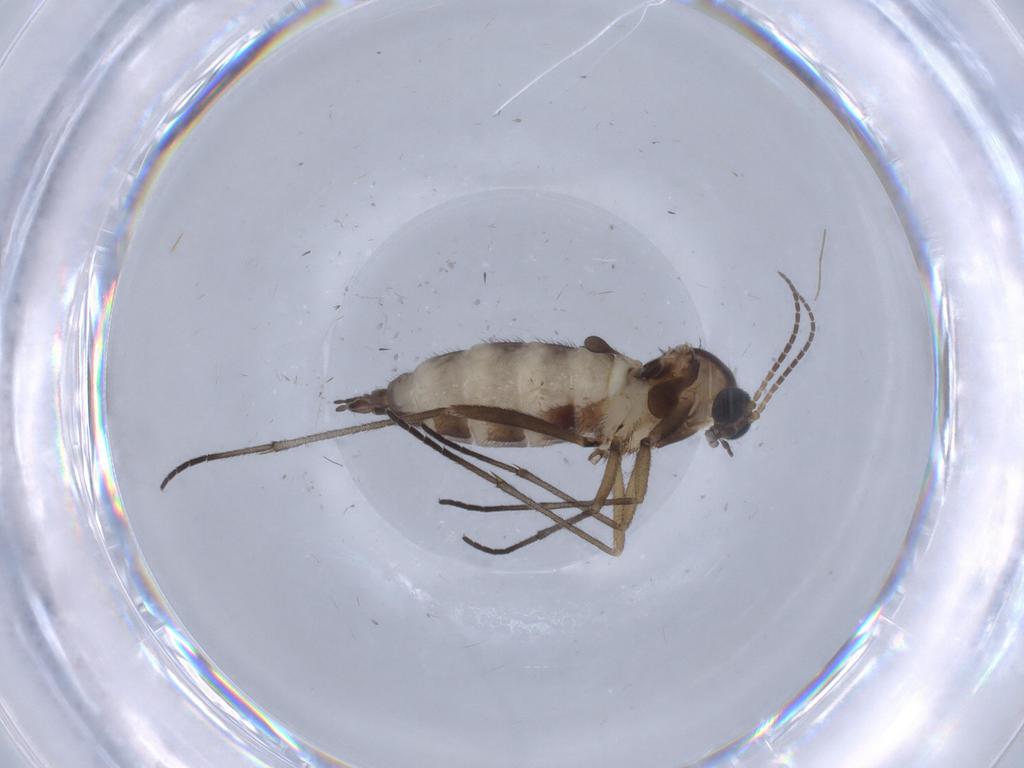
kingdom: Animalia
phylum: Arthropoda
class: Insecta
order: Diptera
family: Sciaridae
